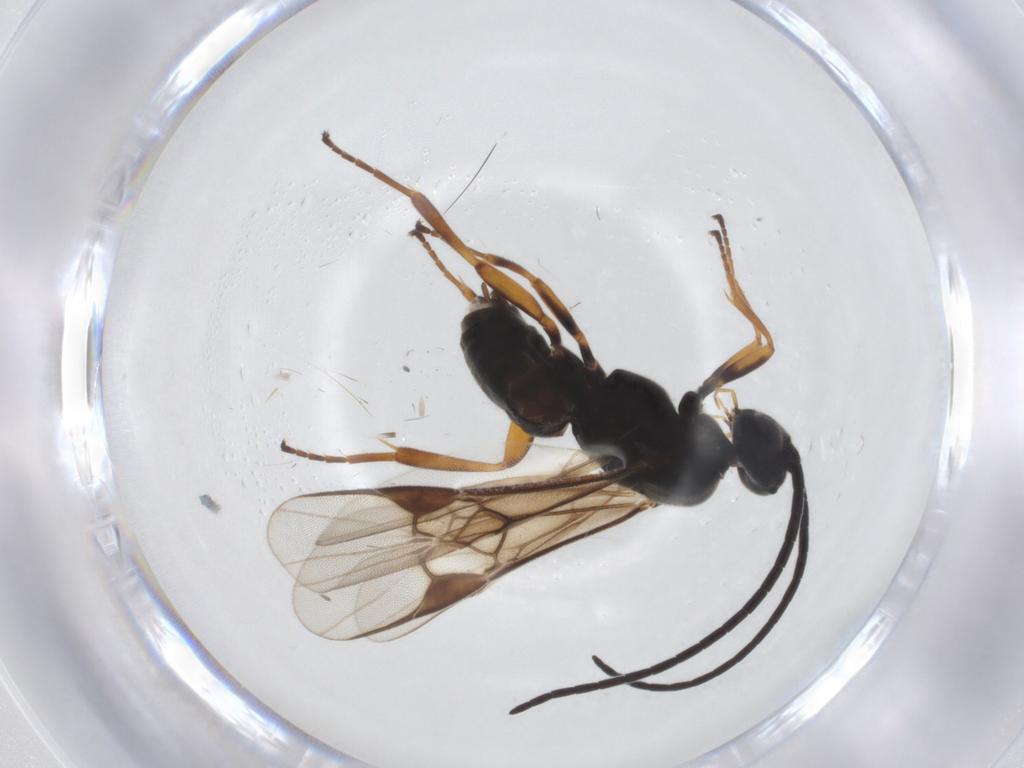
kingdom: Animalia
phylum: Arthropoda
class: Insecta
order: Hymenoptera
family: Braconidae
